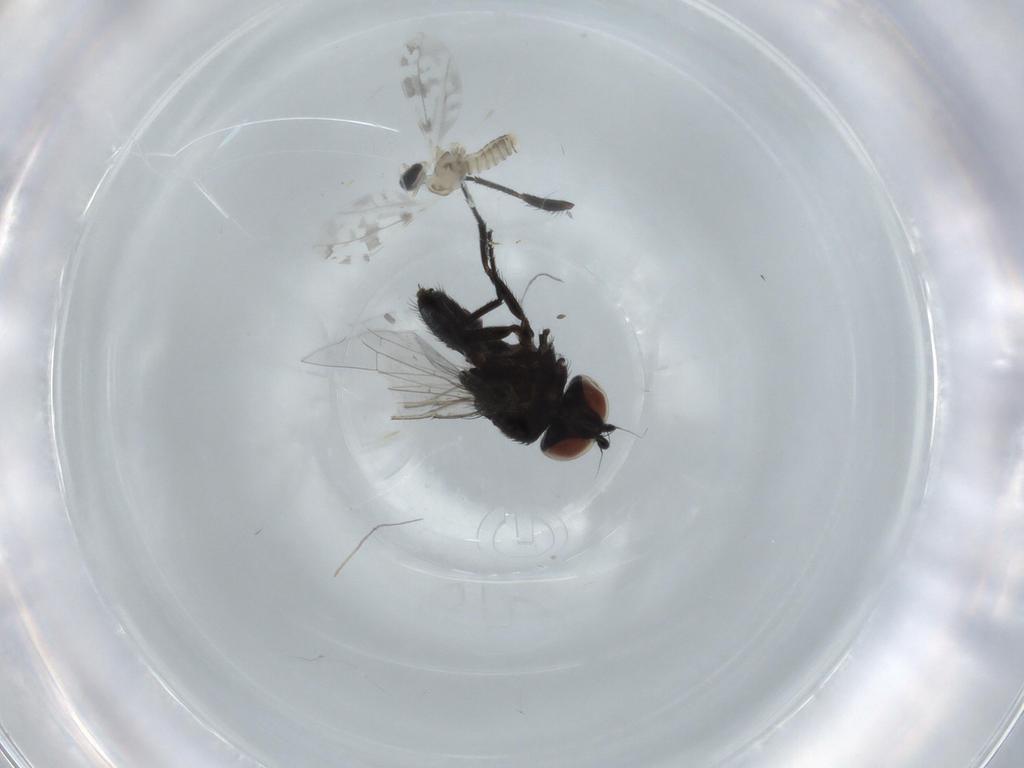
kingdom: Animalia
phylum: Arthropoda
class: Insecta
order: Diptera
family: Cecidomyiidae
